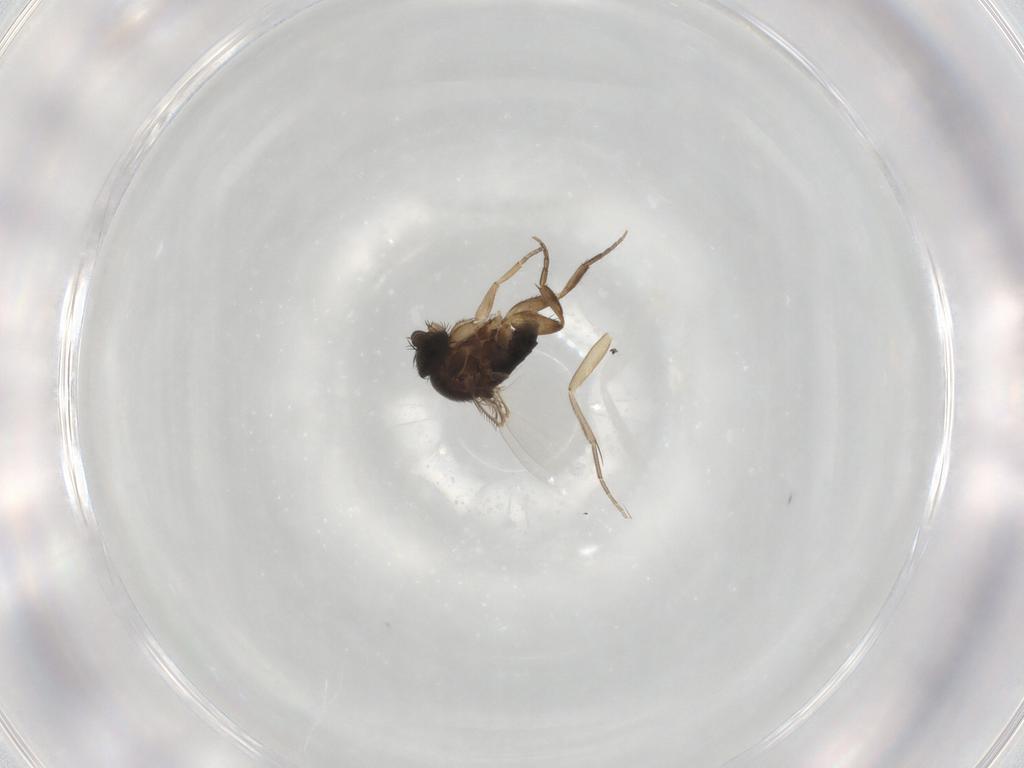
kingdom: Animalia
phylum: Arthropoda
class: Insecta
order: Diptera
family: Phoridae
